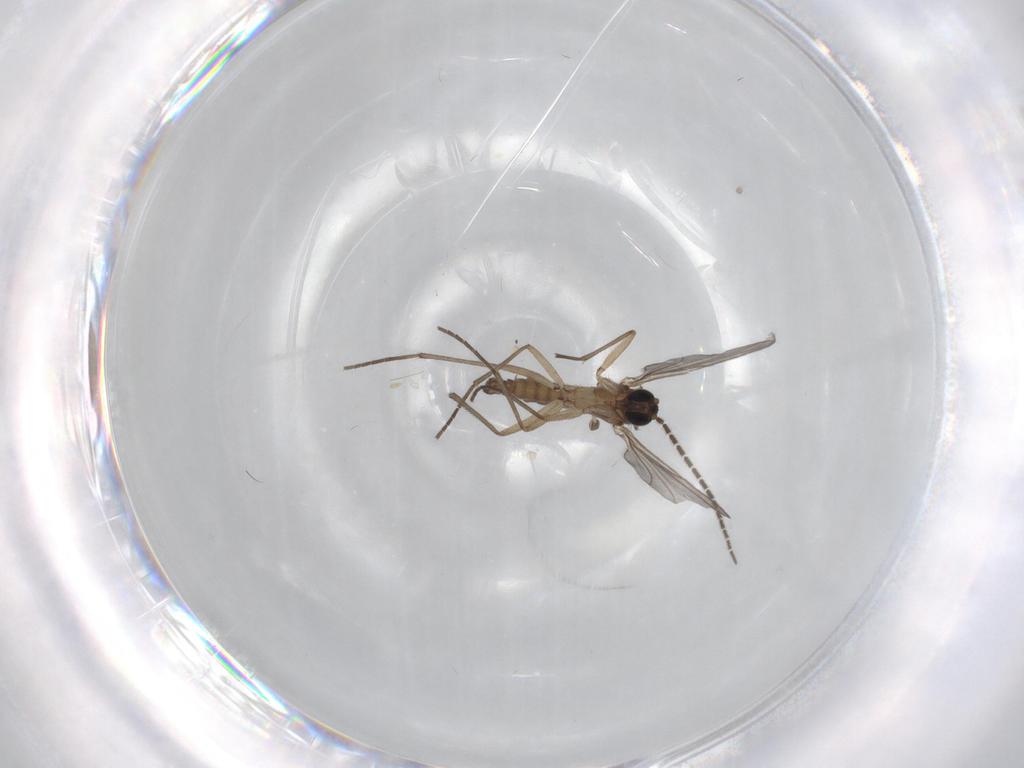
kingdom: Animalia
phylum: Arthropoda
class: Insecta
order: Diptera
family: Sciaridae
